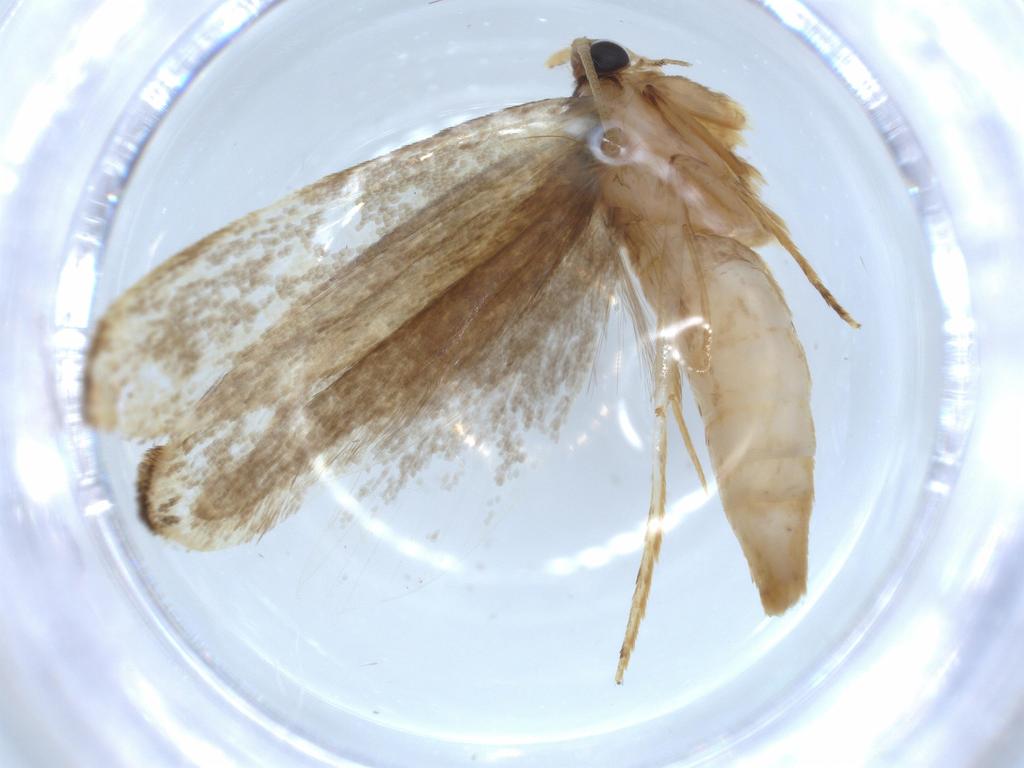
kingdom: Animalia
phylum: Arthropoda
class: Insecta
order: Lepidoptera
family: Tineidae
